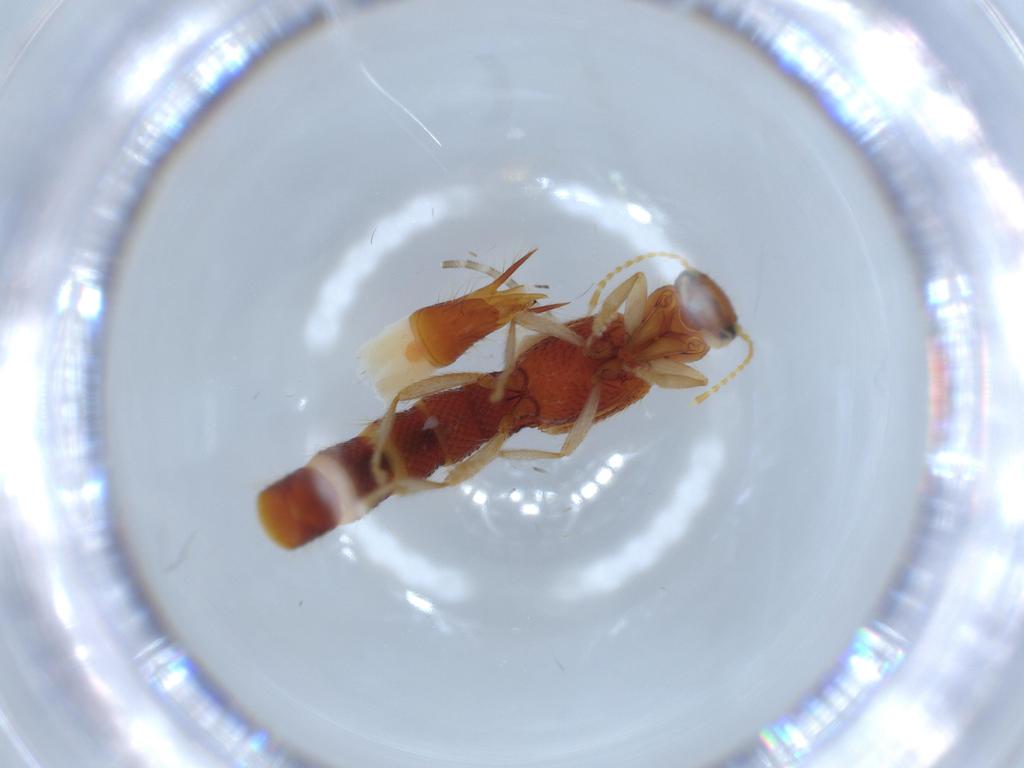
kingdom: Animalia
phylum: Arthropoda
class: Insecta
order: Coleoptera
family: Staphylinidae
